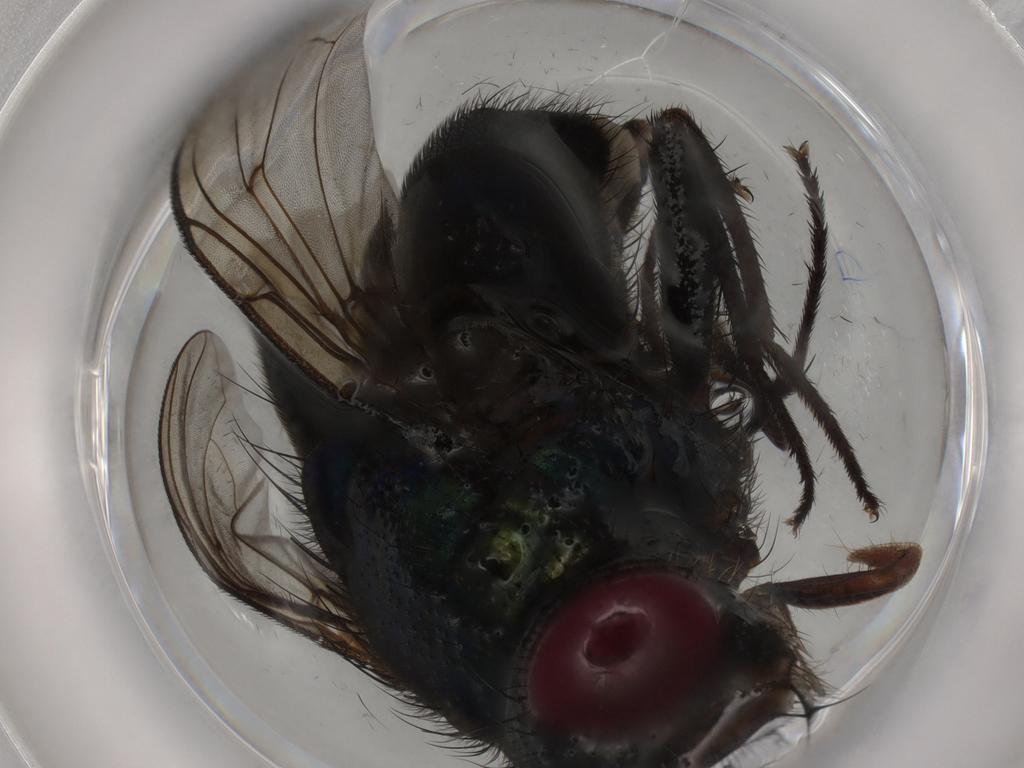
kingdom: Animalia
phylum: Arthropoda
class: Insecta
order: Diptera
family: Calliphoridae
